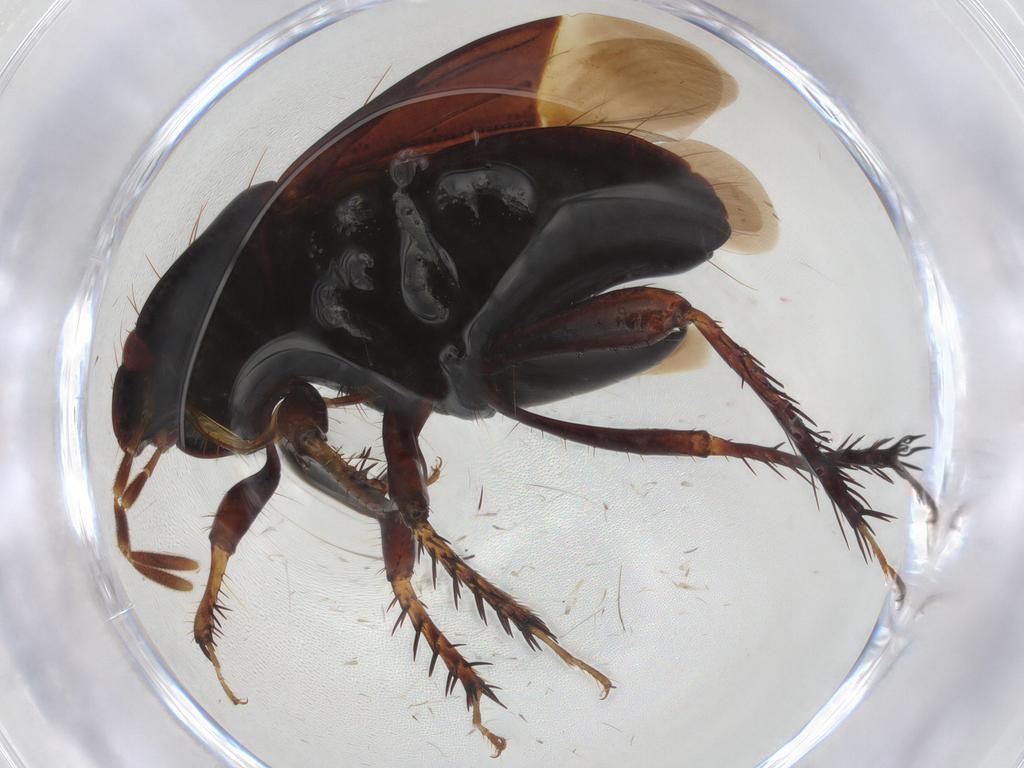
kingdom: Animalia
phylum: Arthropoda
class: Insecta
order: Hemiptera
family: Cydnidae
